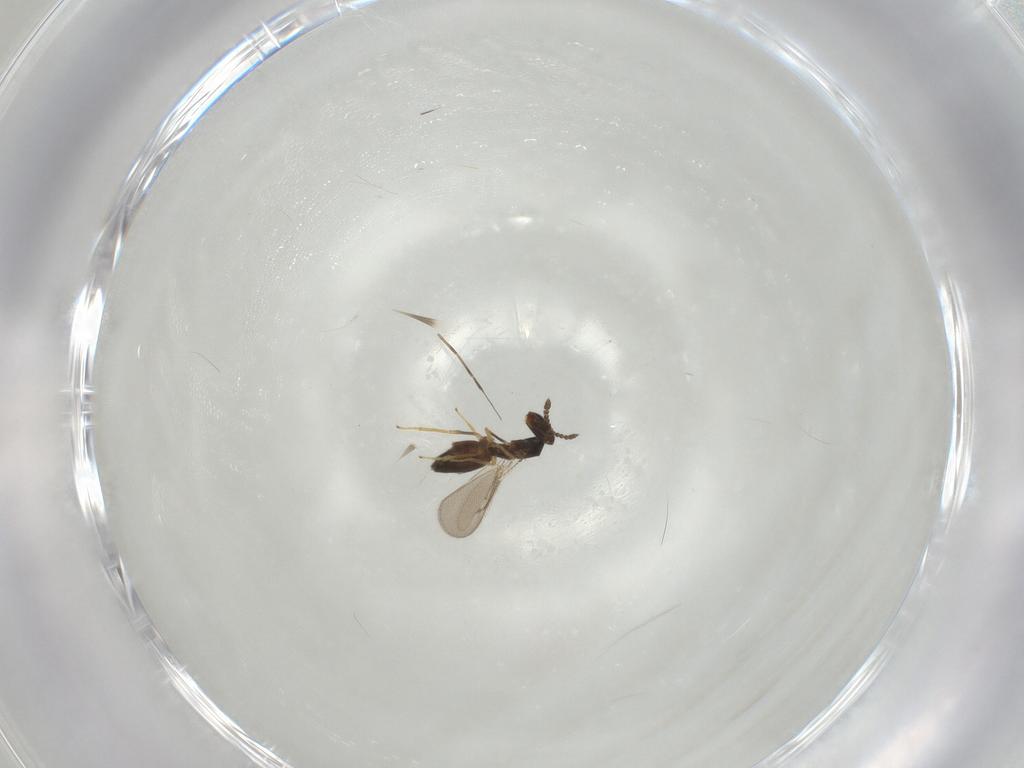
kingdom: Animalia
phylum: Arthropoda
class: Insecta
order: Hymenoptera
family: Eulophidae
